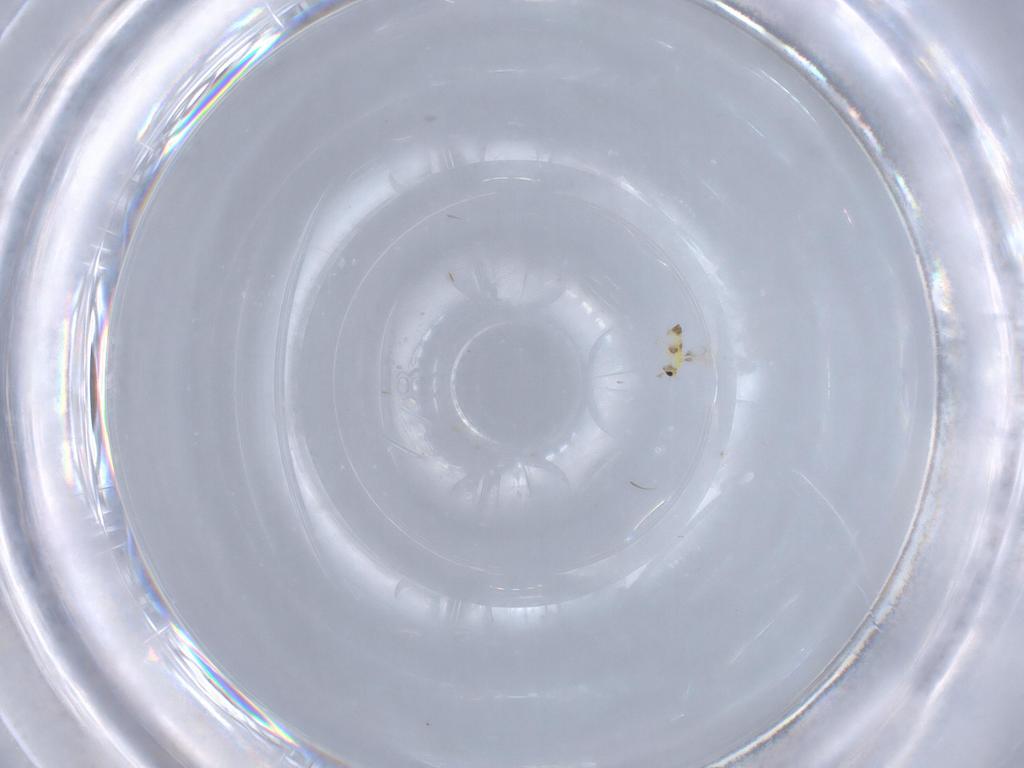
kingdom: Animalia
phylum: Arthropoda
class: Insecta
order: Hymenoptera
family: Trichogrammatidae
